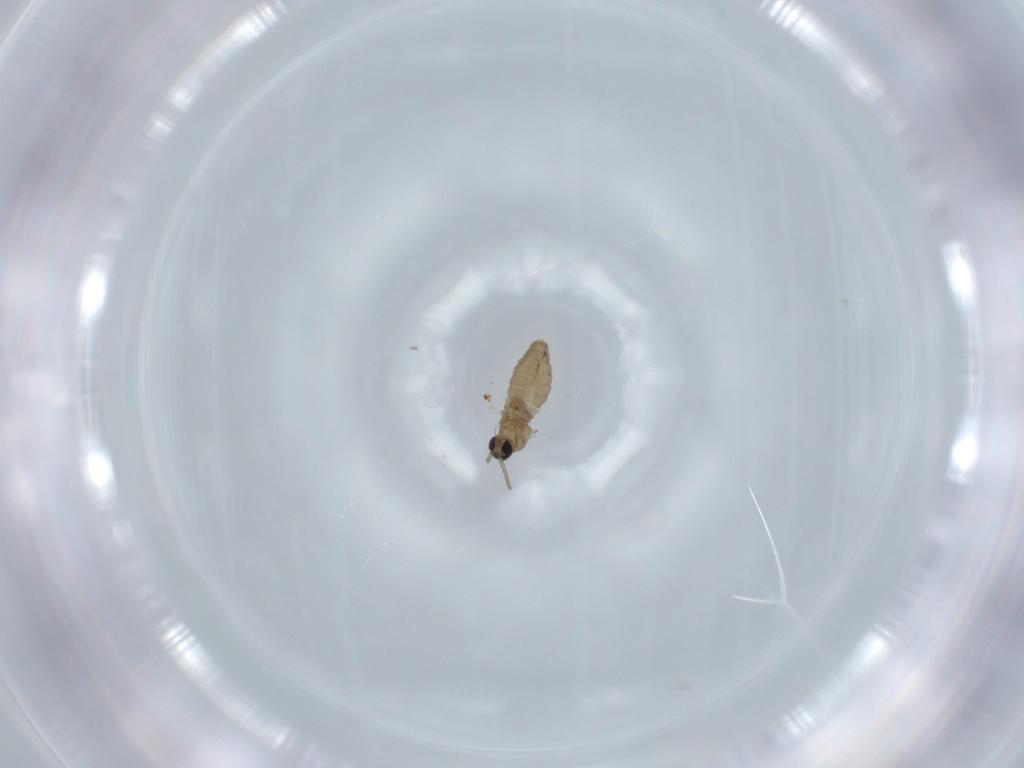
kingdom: Animalia
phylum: Arthropoda
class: Insecta
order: Diptera
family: Cecidomyiidae
